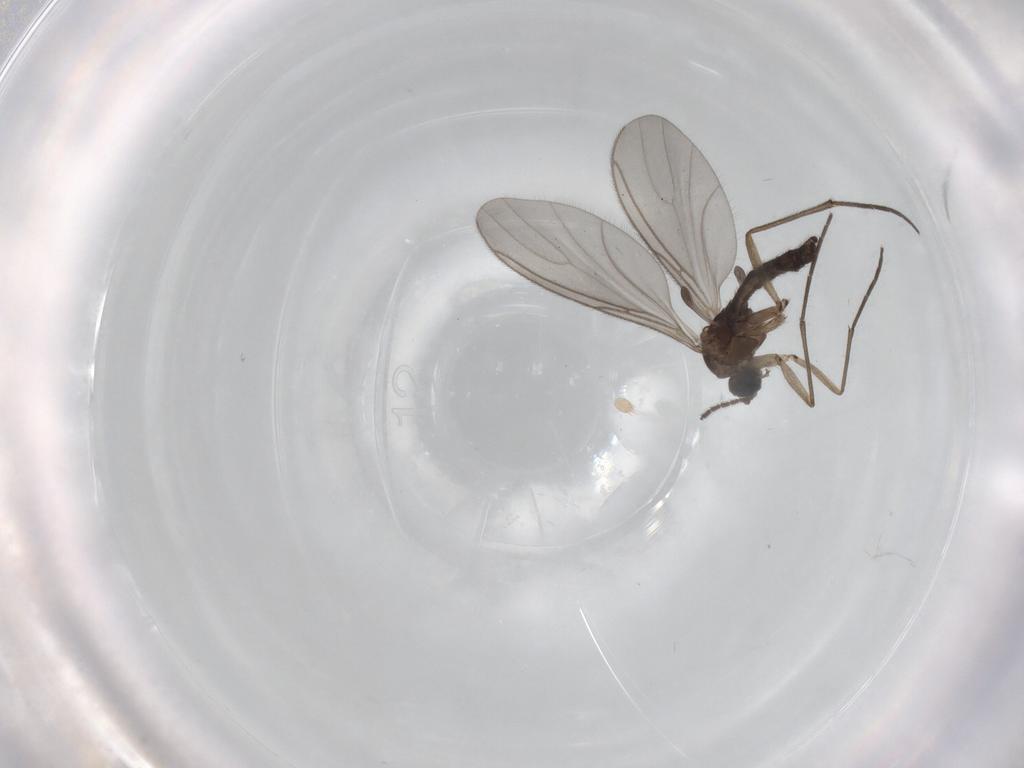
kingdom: Animalia
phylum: Arthropoda
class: Insecta
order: Diptera
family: Sciaridae
